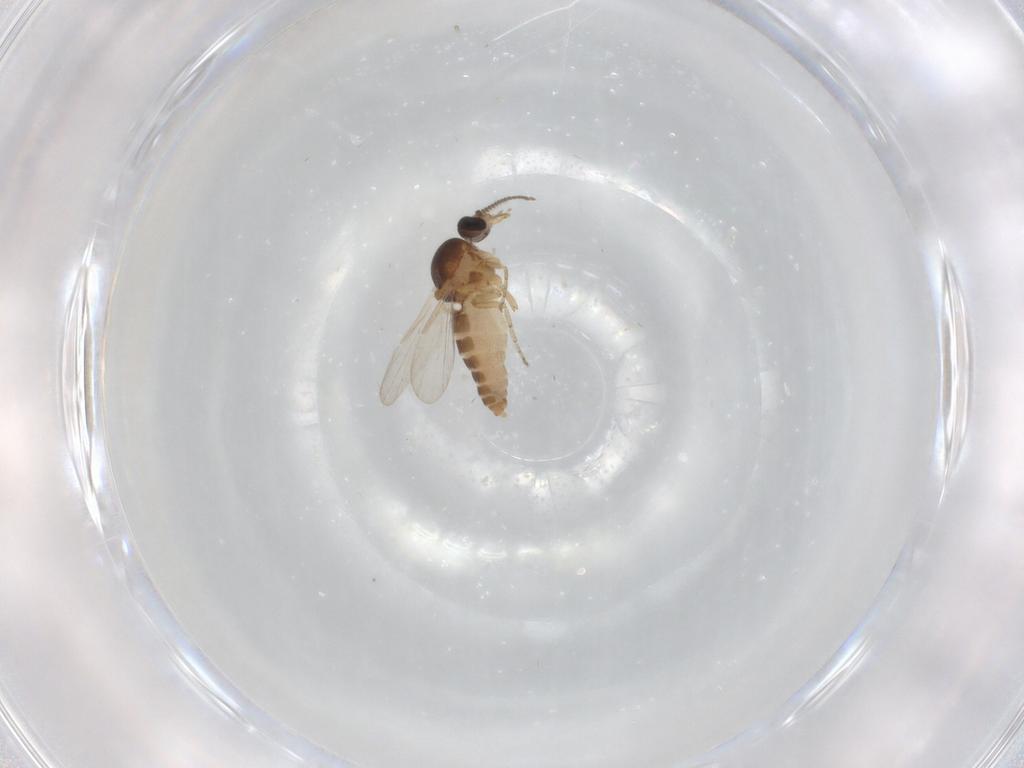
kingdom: Animalia
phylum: Arthropoda
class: Insecta
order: Diptera
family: Ceratopogonidae
